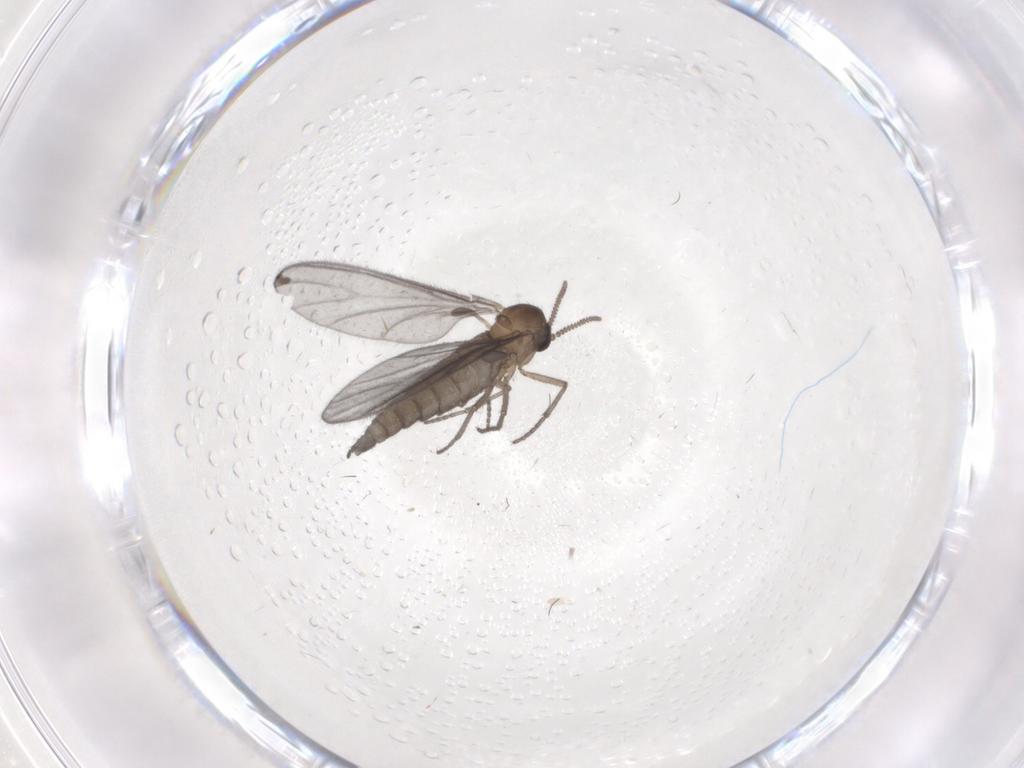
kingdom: Animalia
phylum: Arthropoda
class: Insecta
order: Diptera
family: Sciaridae
